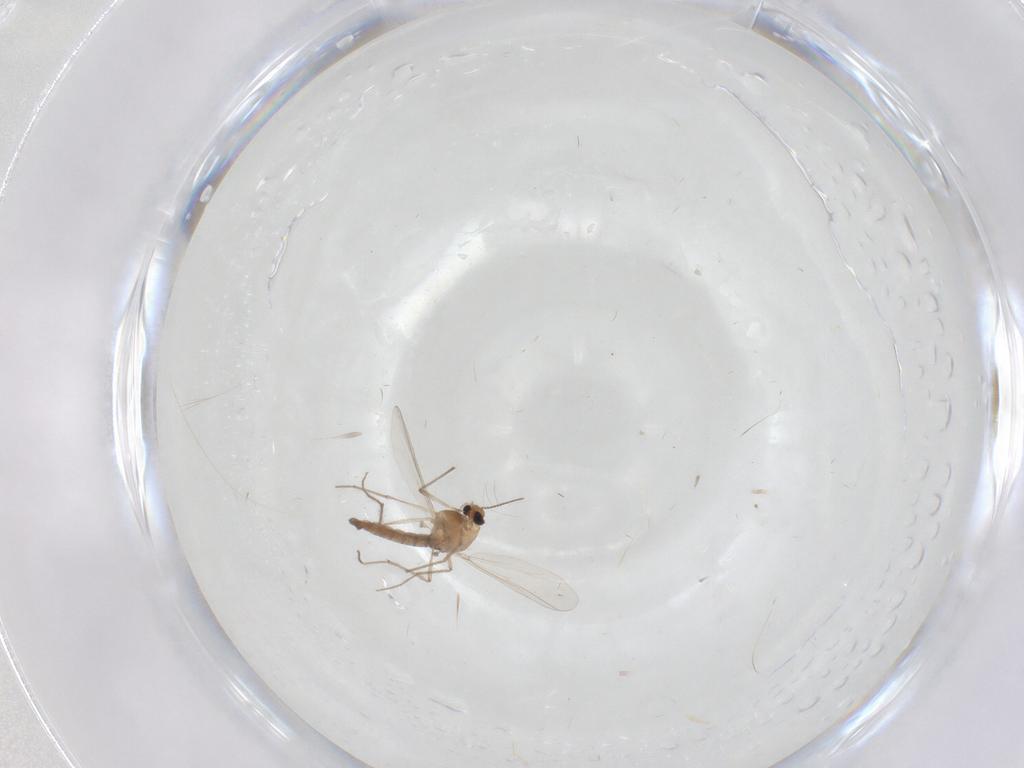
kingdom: Animalia
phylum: Arthropoda
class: Insecta
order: Diptera
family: Chironomidae
